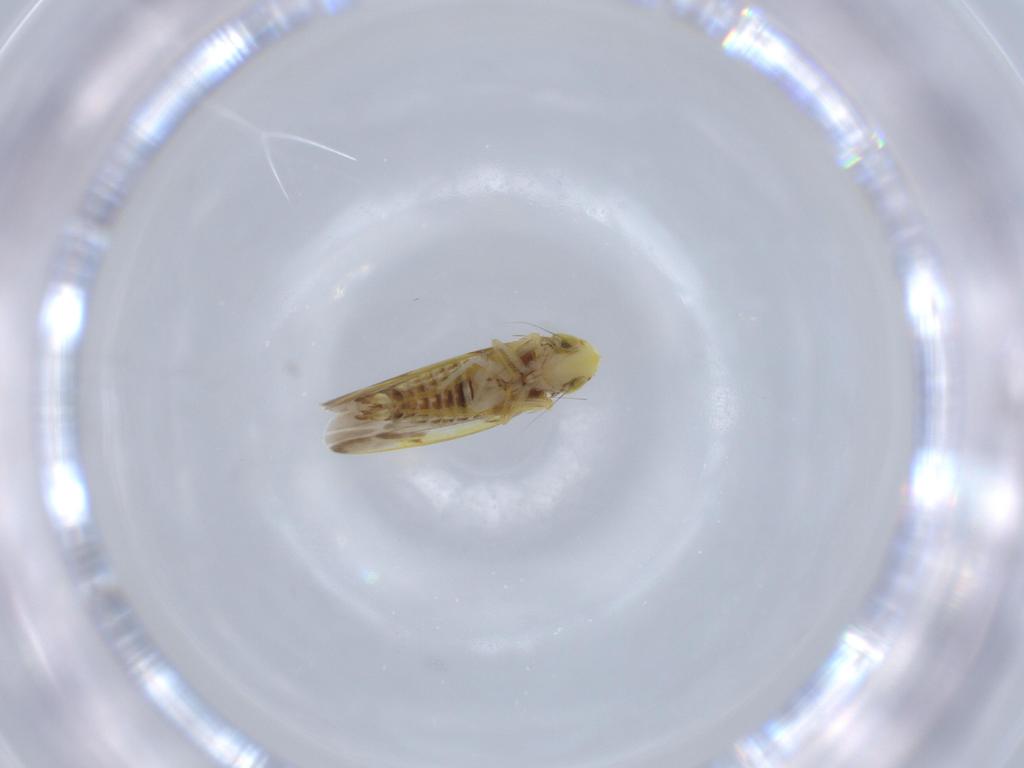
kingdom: Animalia
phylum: Arthropoda
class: Insecta
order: Hemiptera
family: Cicadellidae
